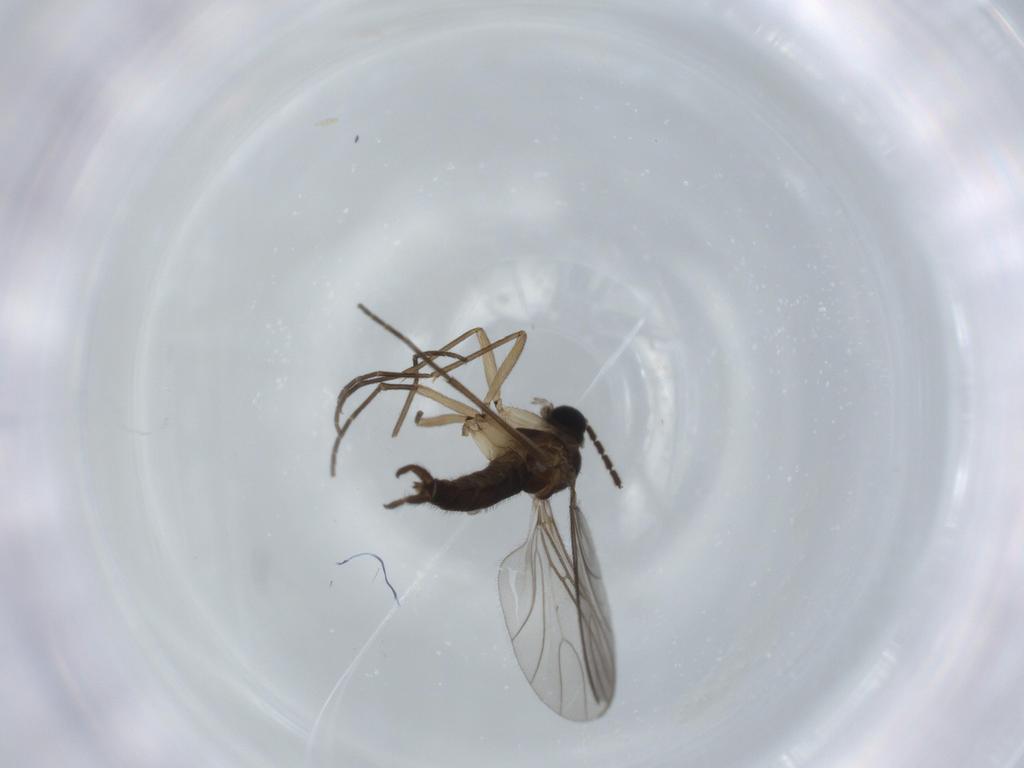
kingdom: Animalia
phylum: Arthropoda
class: Insecta
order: Diptera
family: Sciaridae
